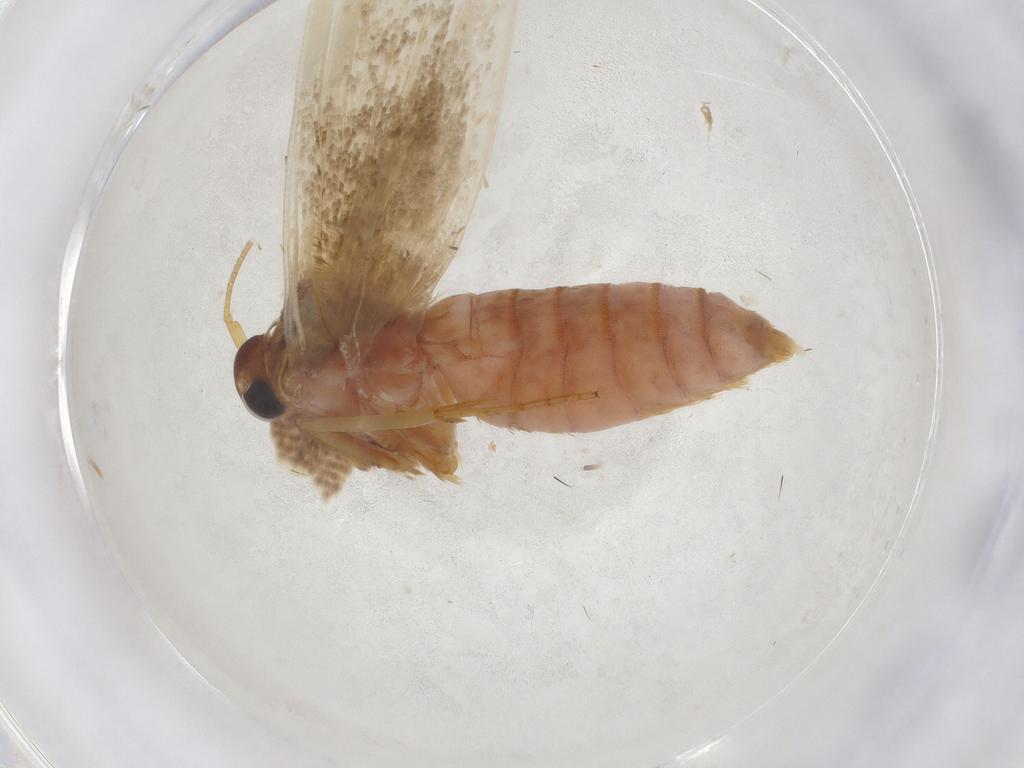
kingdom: Animalia
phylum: Arthropoda
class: Insecta
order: Lepidoptera
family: Blastobasidae
